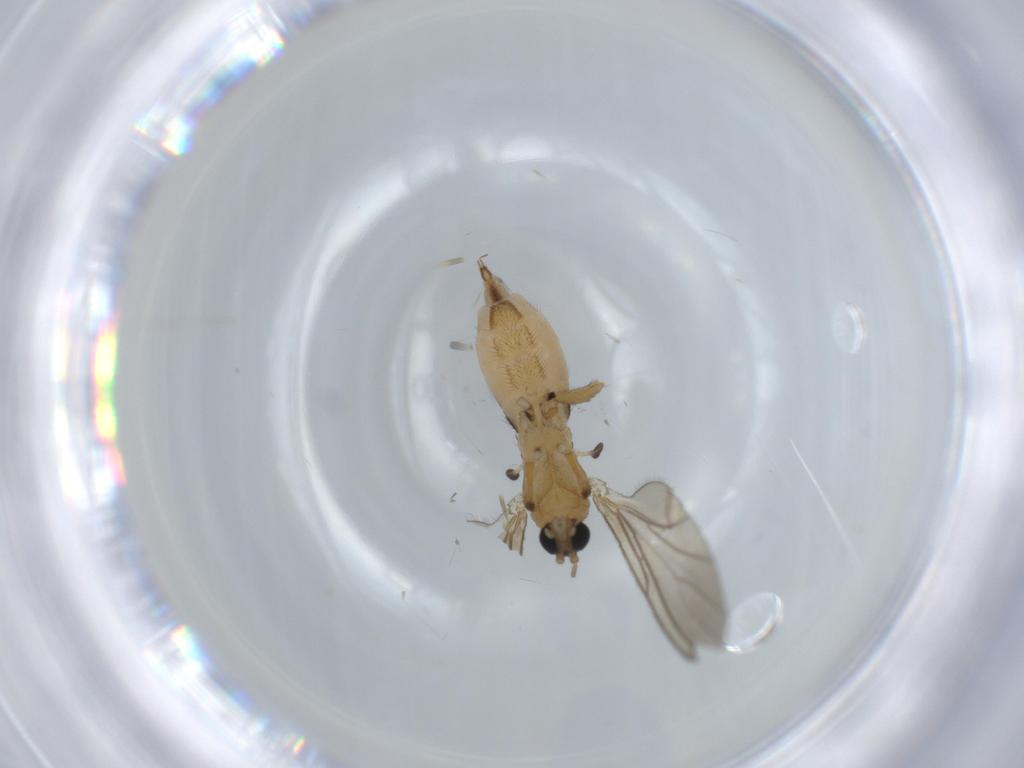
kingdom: Animalia
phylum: Arthropoda
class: Insecta
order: Diptera
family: Sciaridae
